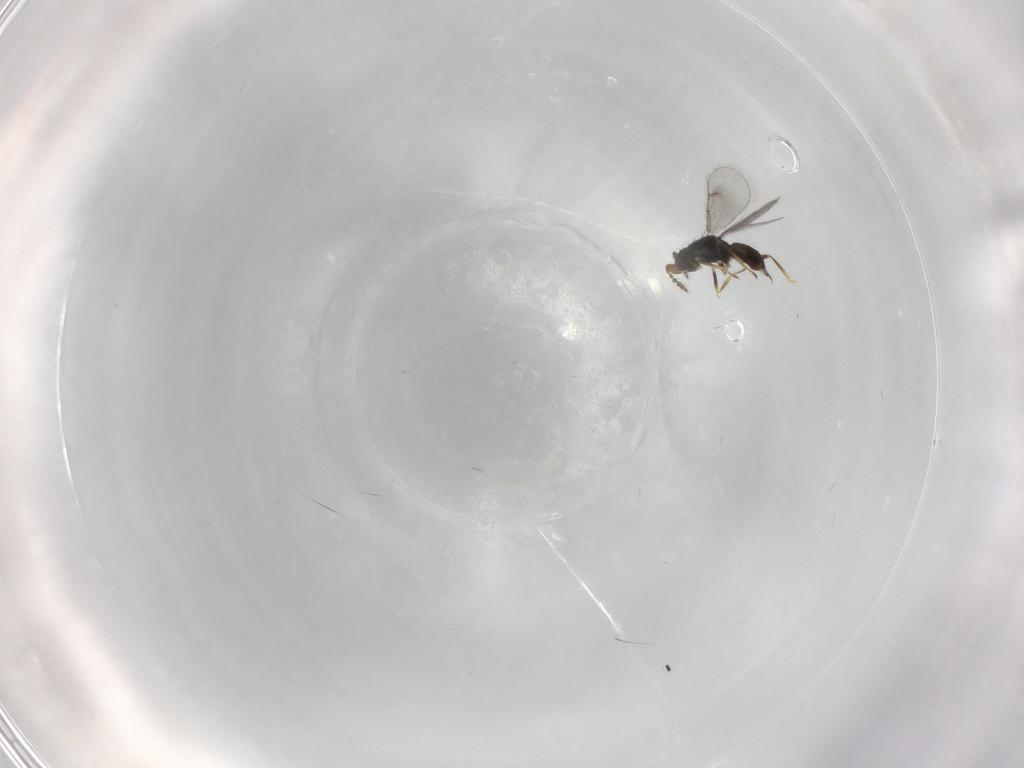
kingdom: Animalia
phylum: Arthropoda
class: Insecta
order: Hymenoptera
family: Eulophidae
